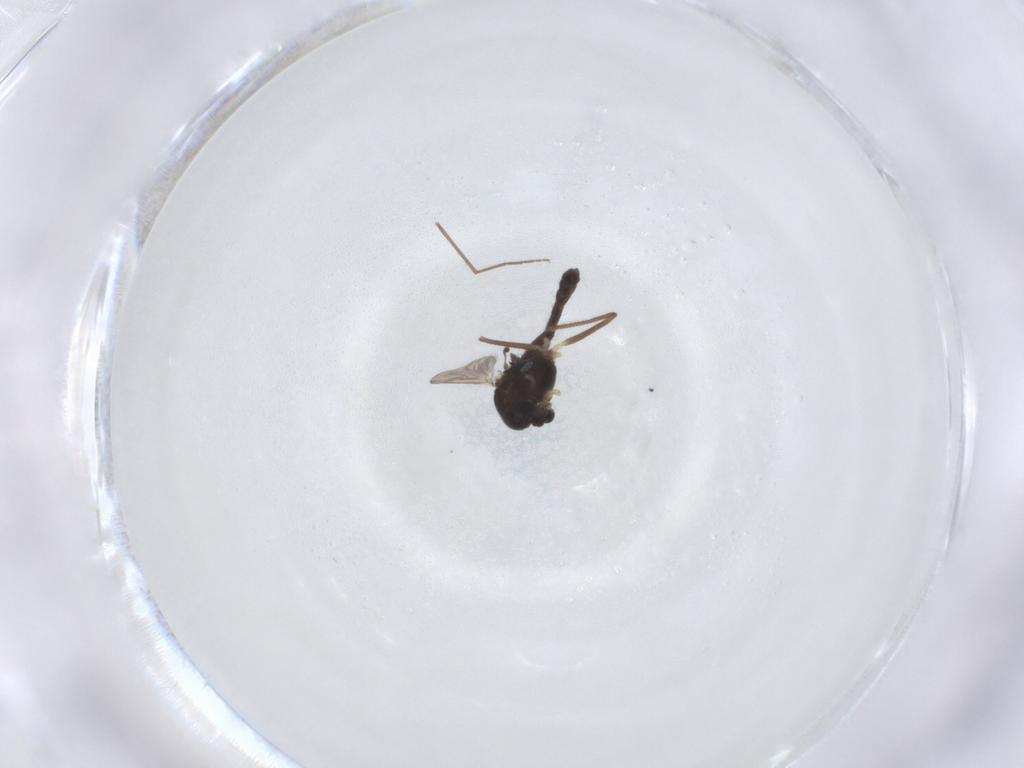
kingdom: Animalia
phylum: Arthropoda
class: Insecta
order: Diptera
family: Chironomidae
